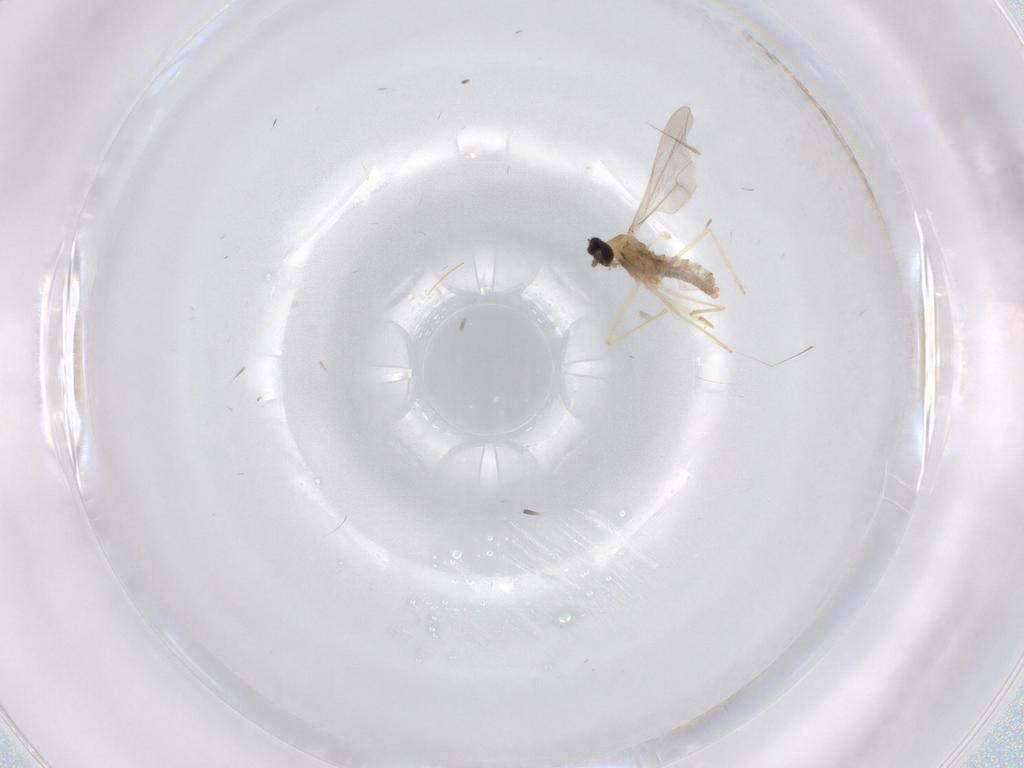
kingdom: Animalia
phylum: Arthropoda
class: Insecta
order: Diptera
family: Cecidomyiidae
